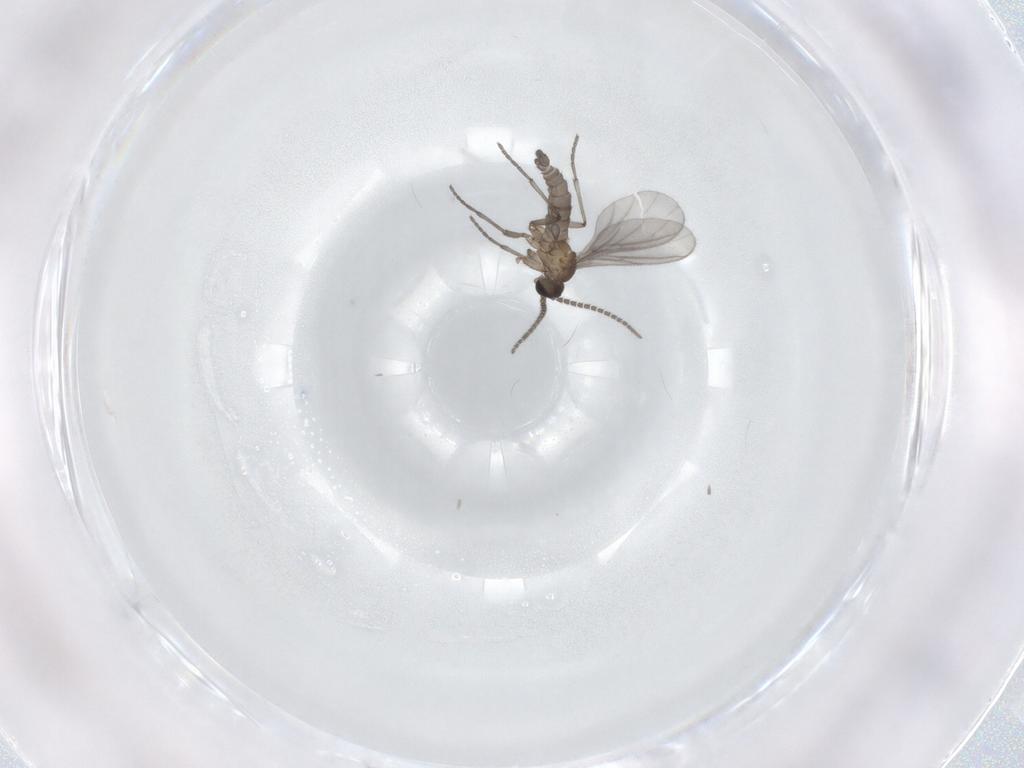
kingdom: Animalia
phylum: Arthropoda
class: Insecta
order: Diptera
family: Sciaridae
